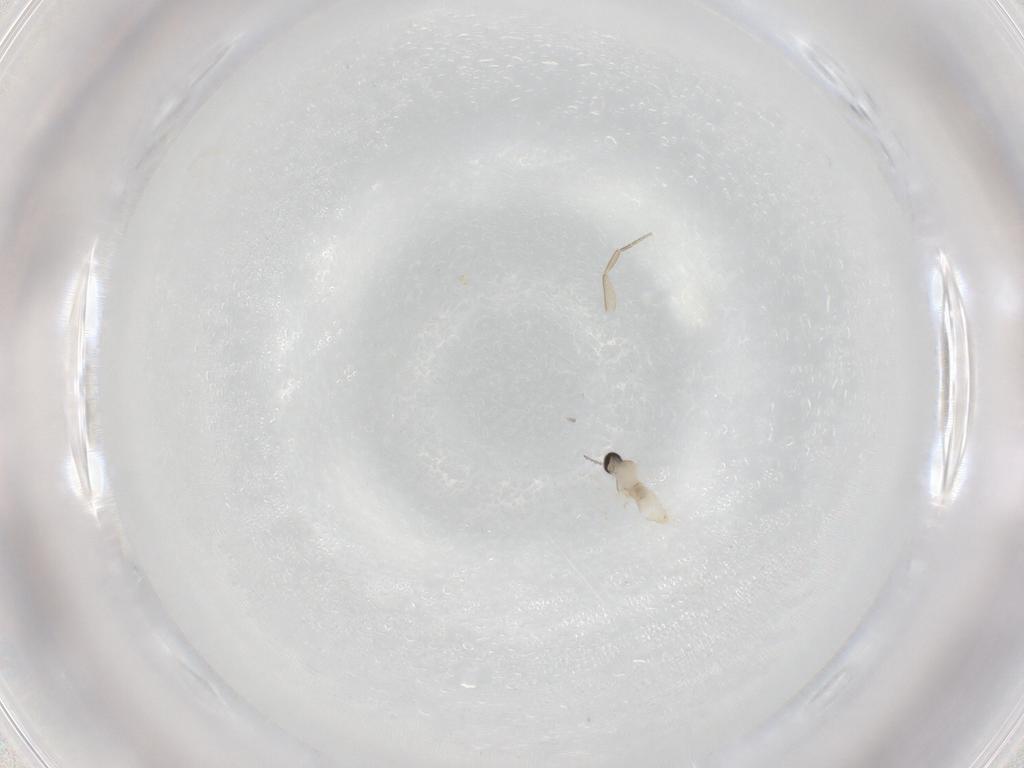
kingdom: Animalia
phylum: Arthropoda
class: Insecta
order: Diptera
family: Phoridae
